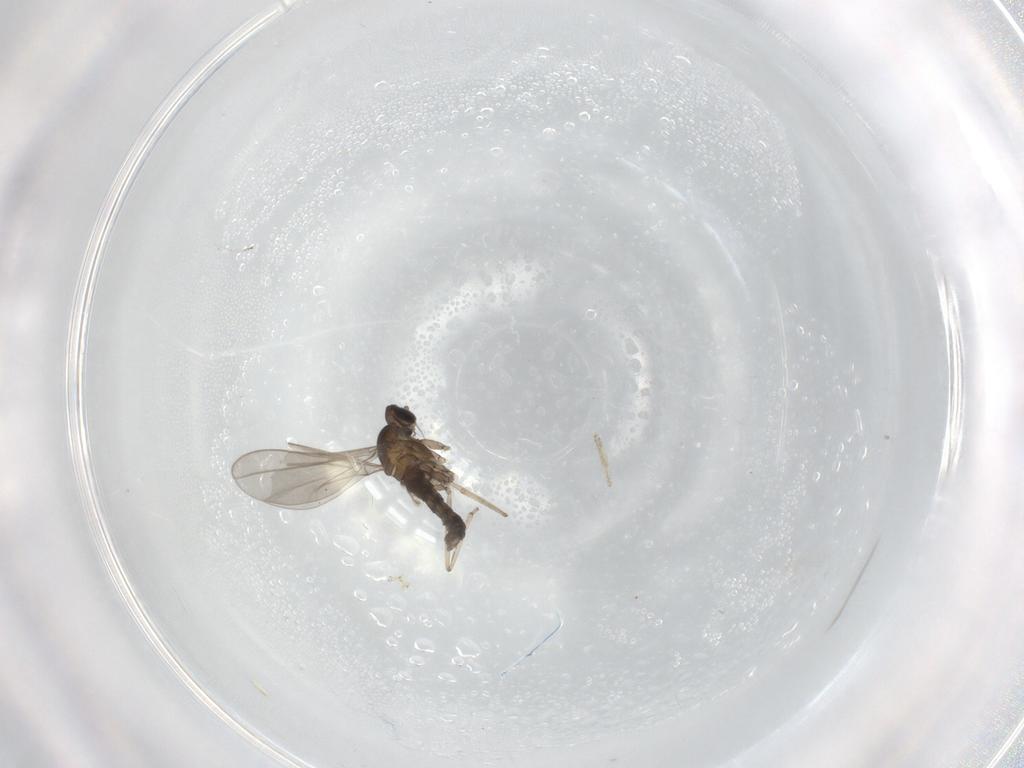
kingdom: Animalia
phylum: Arthropoda
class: Insecta
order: Diptera
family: Cecidomyiidae
